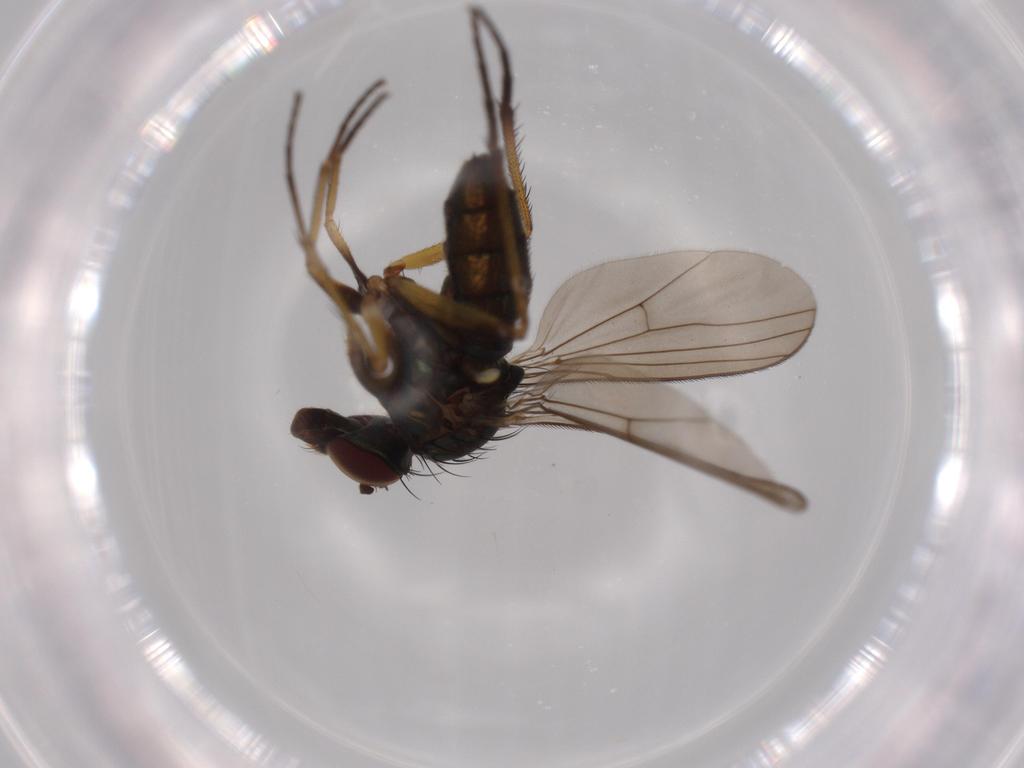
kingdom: Animalia
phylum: Arthropoda
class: Insecta
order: Diptera
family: Dolichopodidae
